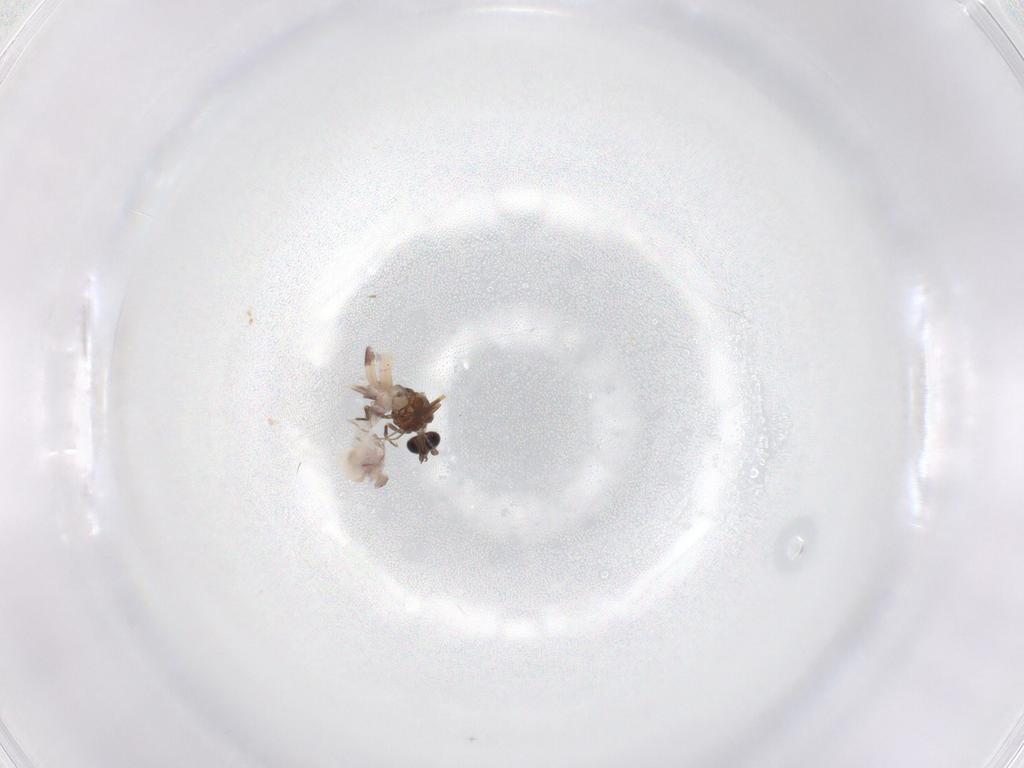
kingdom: Animalia
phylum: Arthropoda
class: Insecta
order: Diptera
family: Ceratopogonidae
